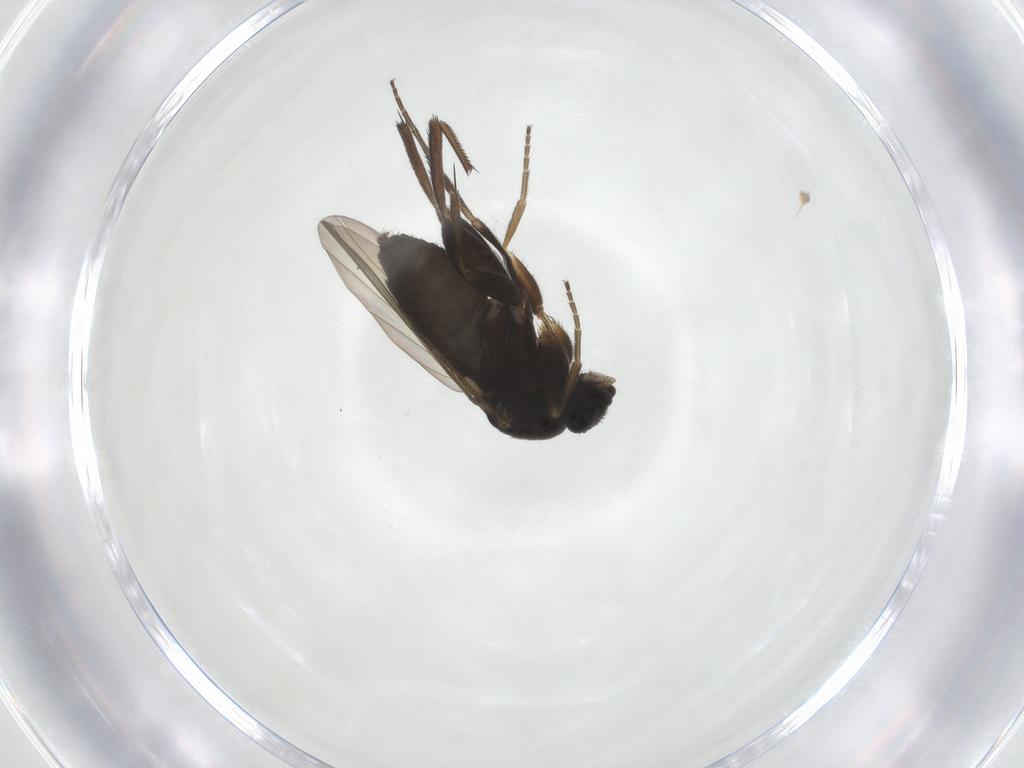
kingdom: Animalia
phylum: Arthropoda
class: Insecta
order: Diptera
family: Phoridae
